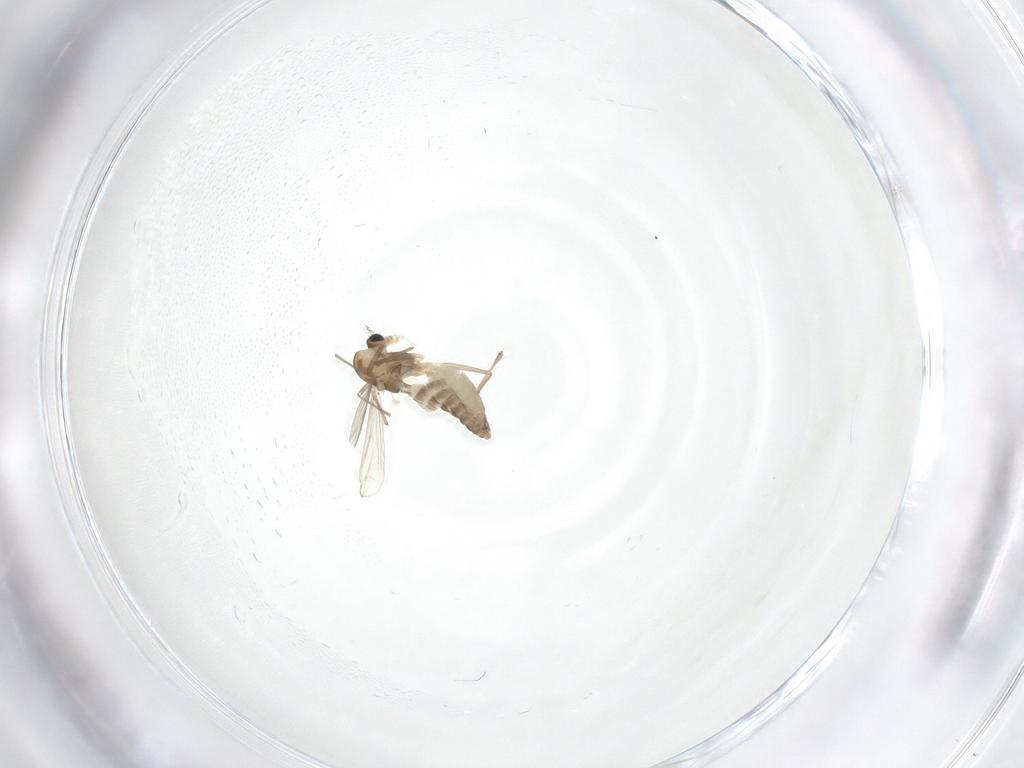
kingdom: Animalia
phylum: Arthropoda
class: Insecta
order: Diptera
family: Chironomidae
